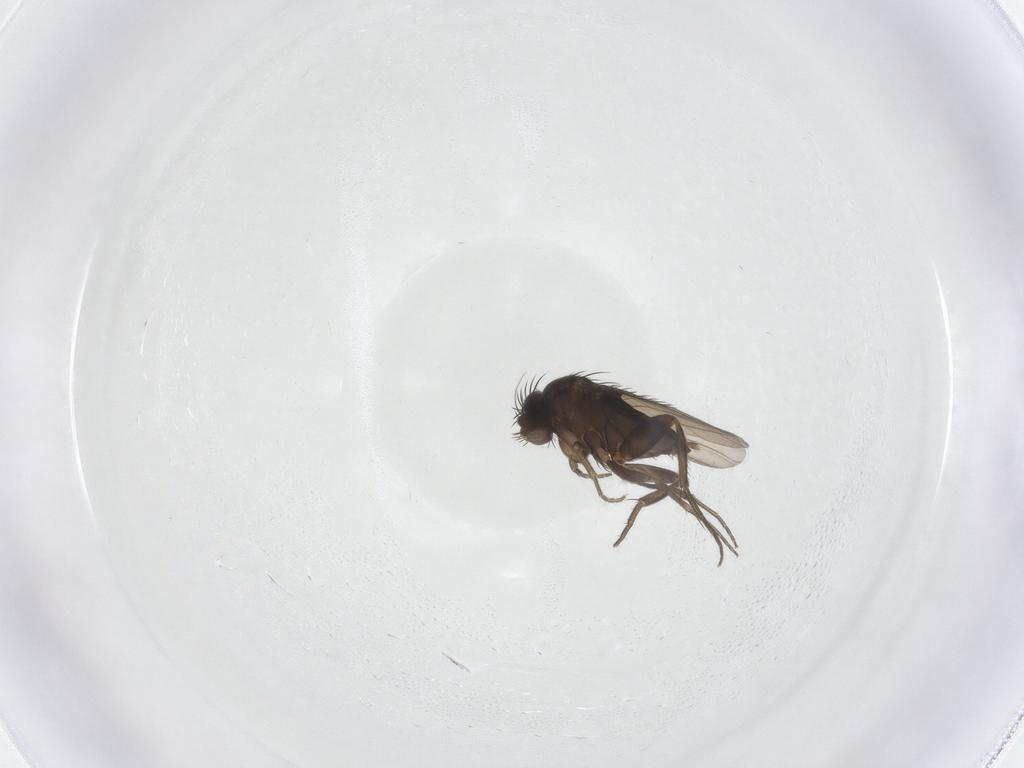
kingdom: Animalia
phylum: Arthropoda
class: Insecta
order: Diptera
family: Phoridae
